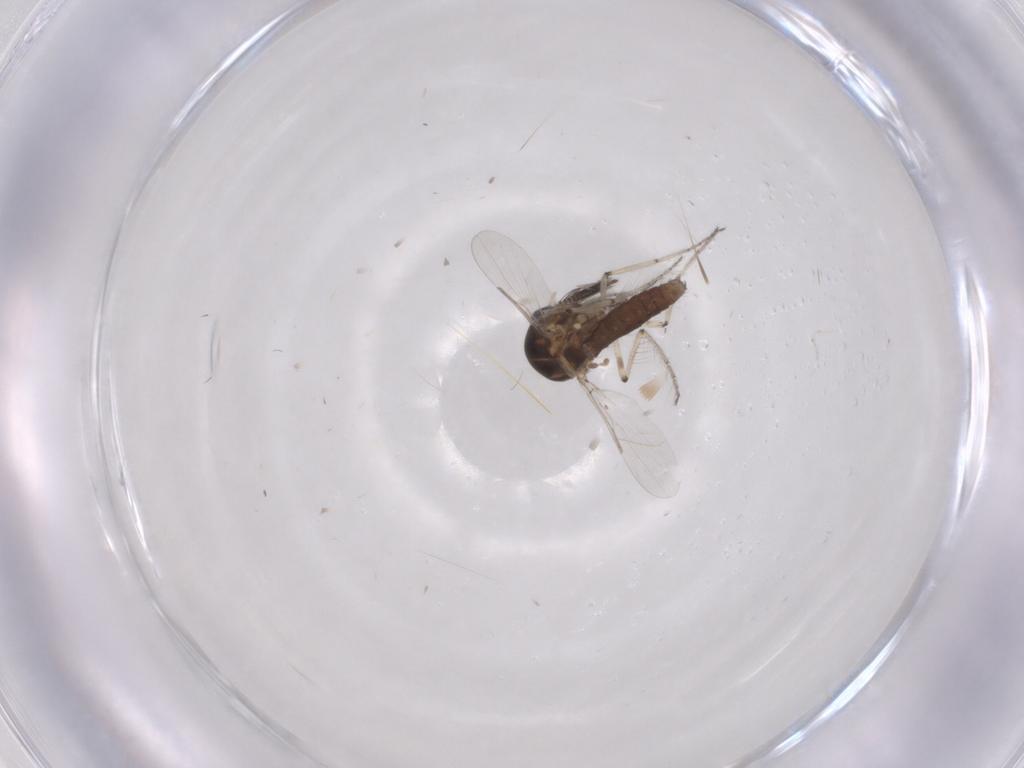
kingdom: Animalia
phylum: Arthropoda
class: Insecta
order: Diptera
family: Ceratopogonidae
